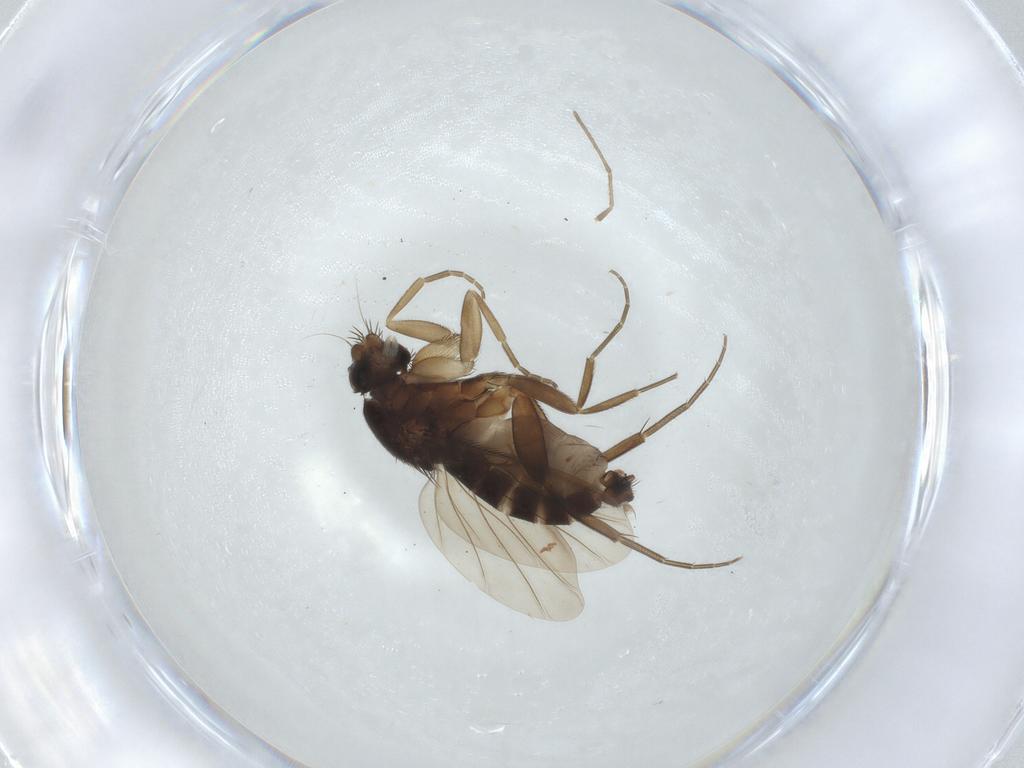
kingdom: Animalia
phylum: Arthropoda
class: Insecta
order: Diptera
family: Phoridae
